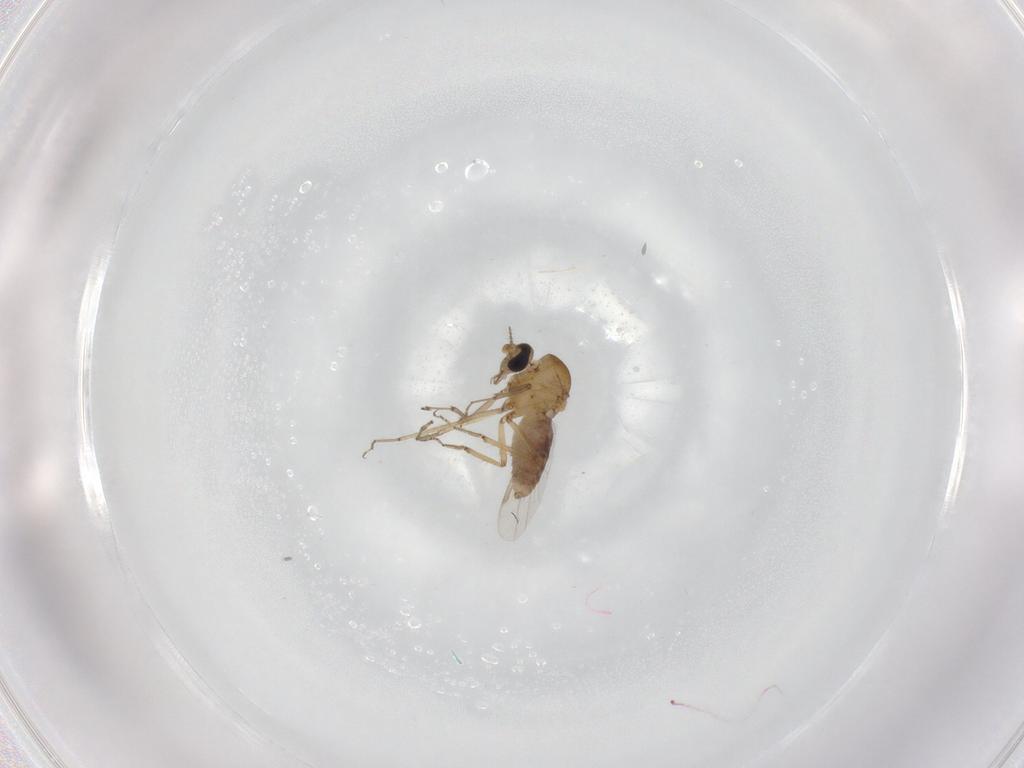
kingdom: Animalia
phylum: Arthropoda
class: Insecta
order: Diptera
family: Ceratopogonidae
